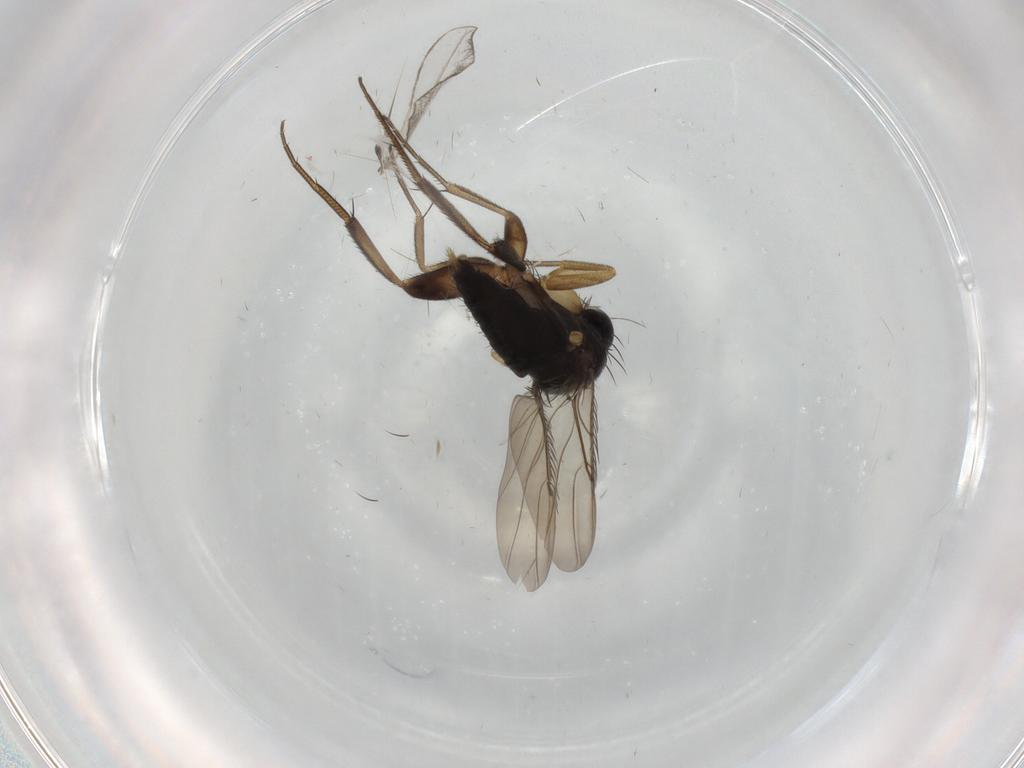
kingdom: Animalia
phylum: Arthropoda
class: Insecta
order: Diptera
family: Phoridae
